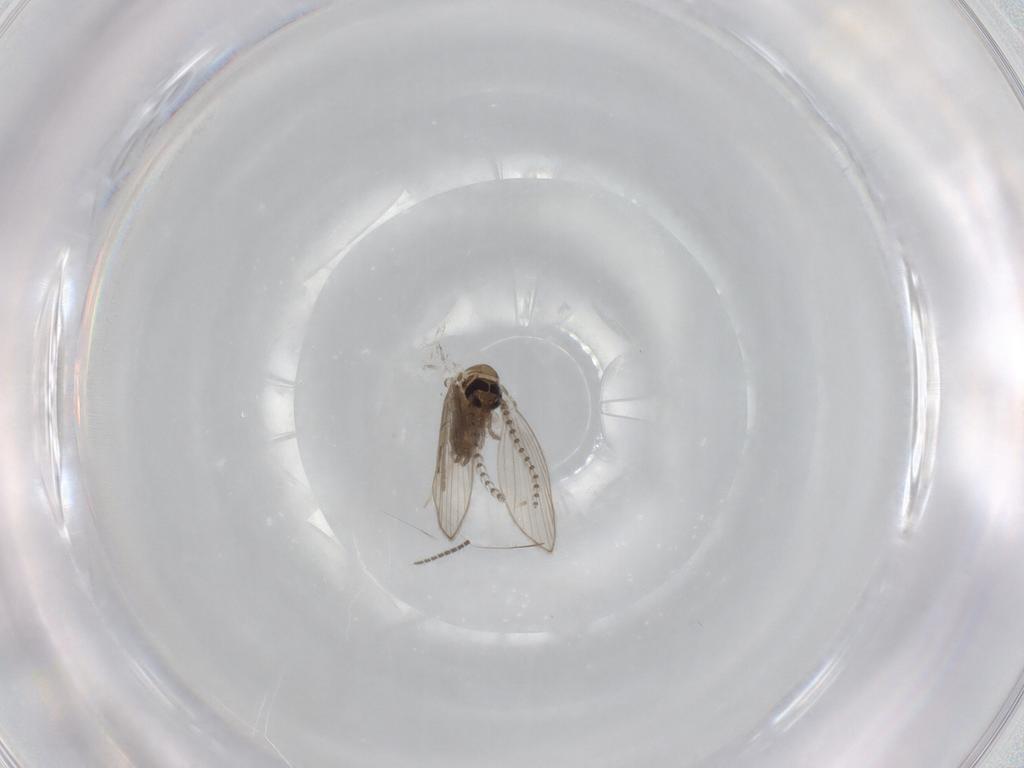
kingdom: Animalia
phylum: Arthropoda
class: Insecta
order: Diptera
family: Psychodidae
